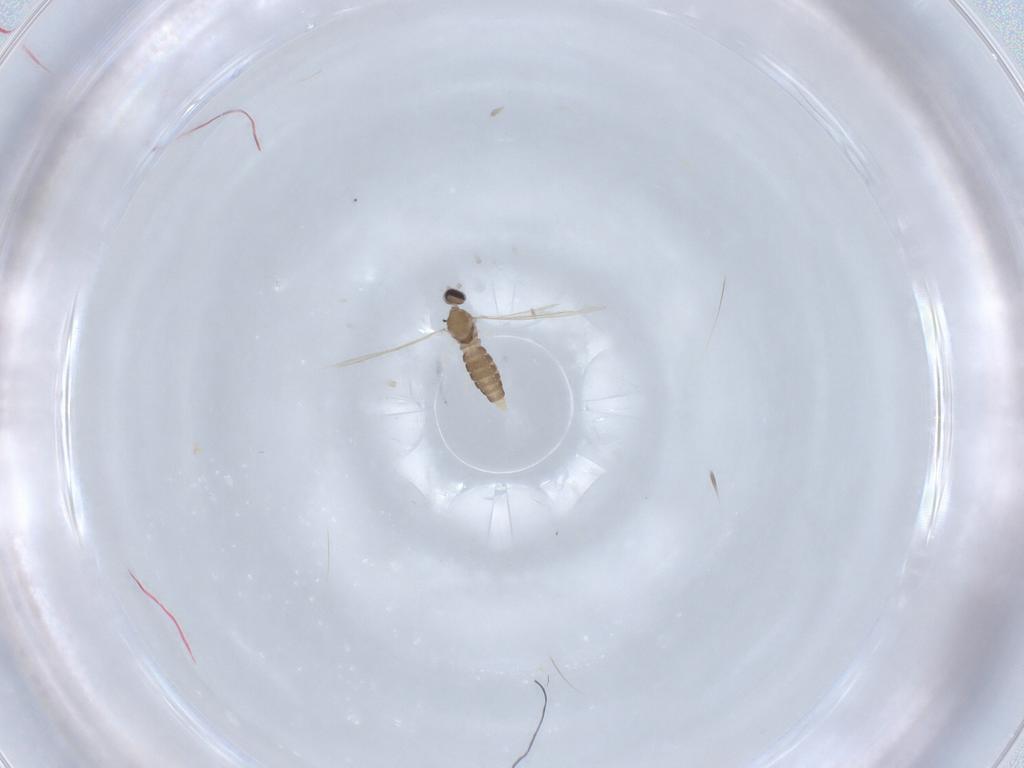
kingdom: Animalia
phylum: Arthropoda
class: Insecta
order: Diptera
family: Cecidomyiidae
